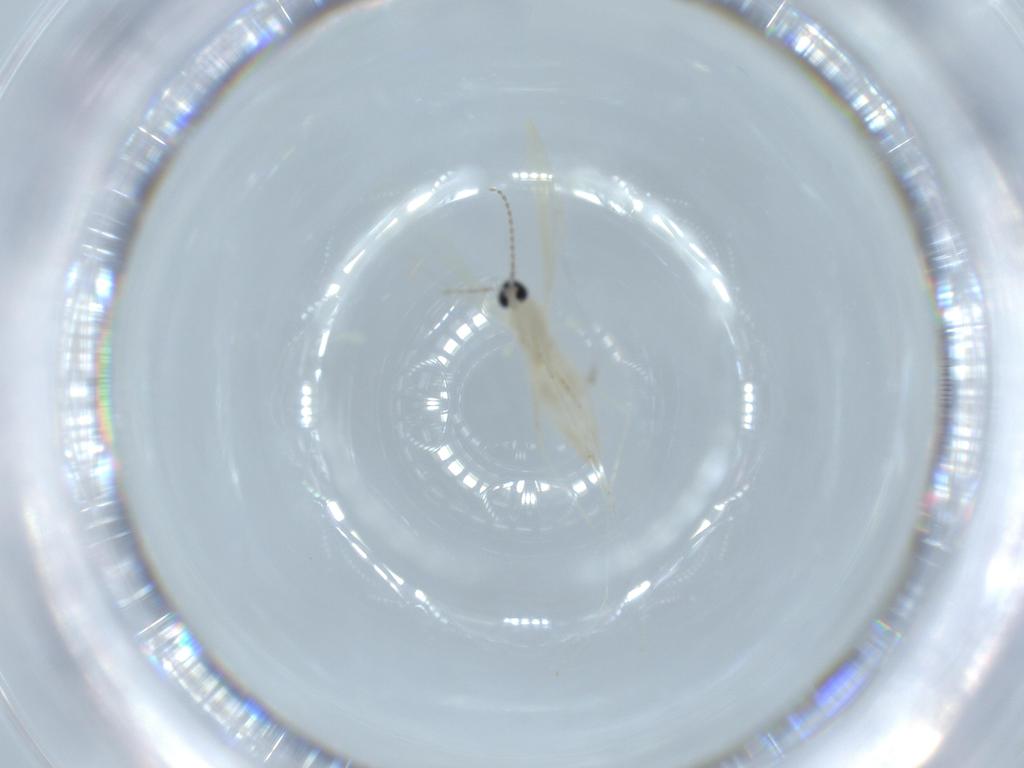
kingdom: Animalia
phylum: Arthropoda
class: Insecta
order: Diptera
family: Cecidomyiidae
